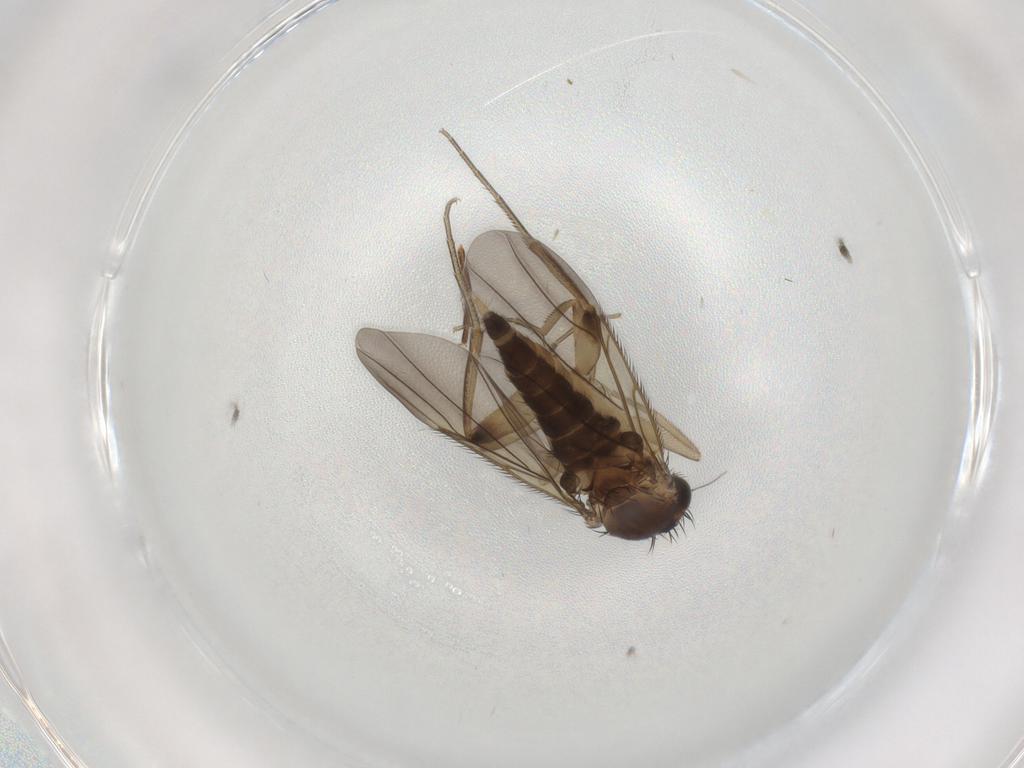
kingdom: Animalia
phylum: Arthropoda
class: Insecta
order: Diptera
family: Phoridae
